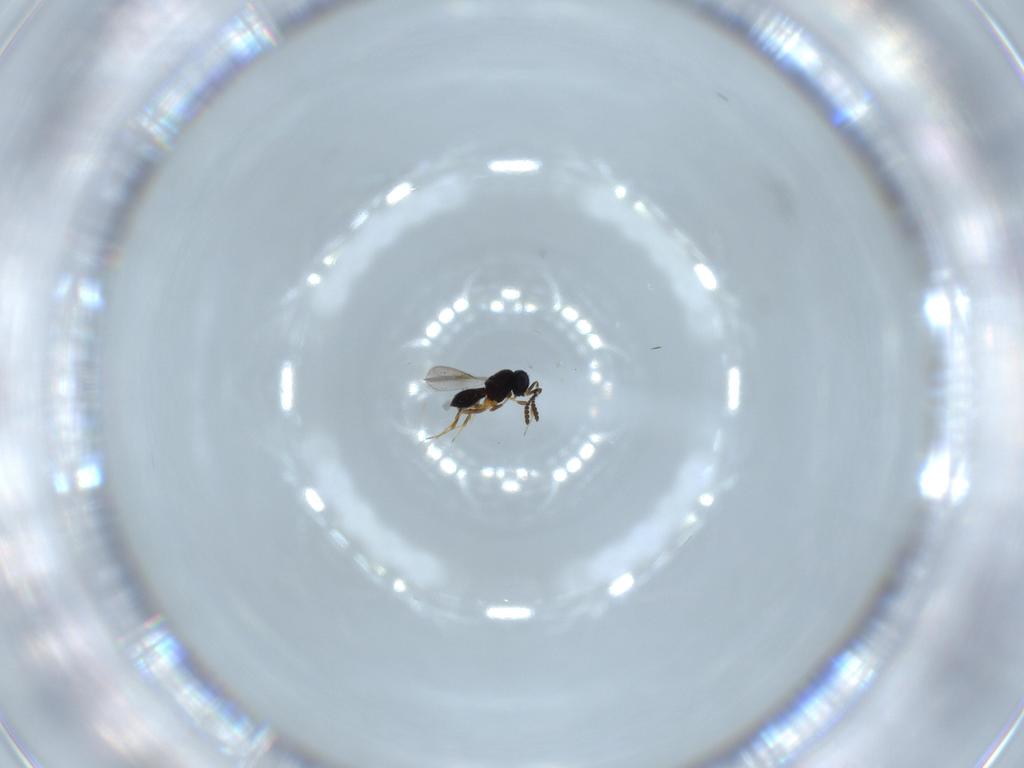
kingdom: Animalia
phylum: Arthropoda
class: Insecta
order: Hymenoptera
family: Scelionidae
